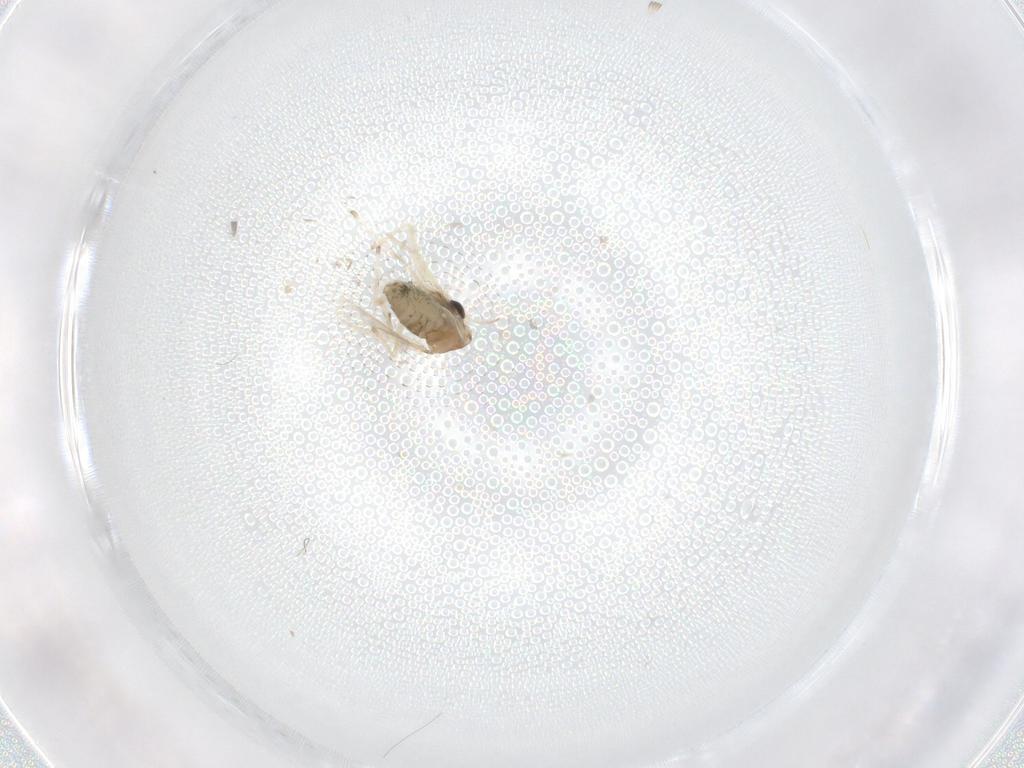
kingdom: Animalia
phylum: Arthropoda
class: Insecta
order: Diptera
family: Chironomidae
